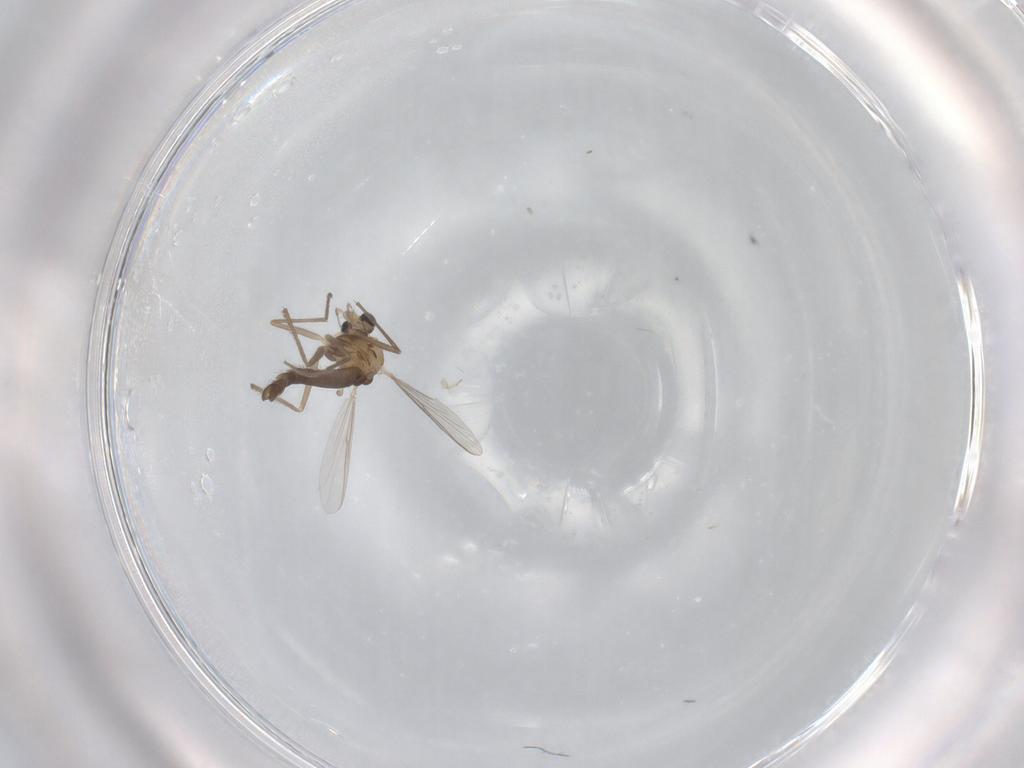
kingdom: Animalia
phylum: Arthropoda
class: Insecta
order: Diptera
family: Chironomidae
